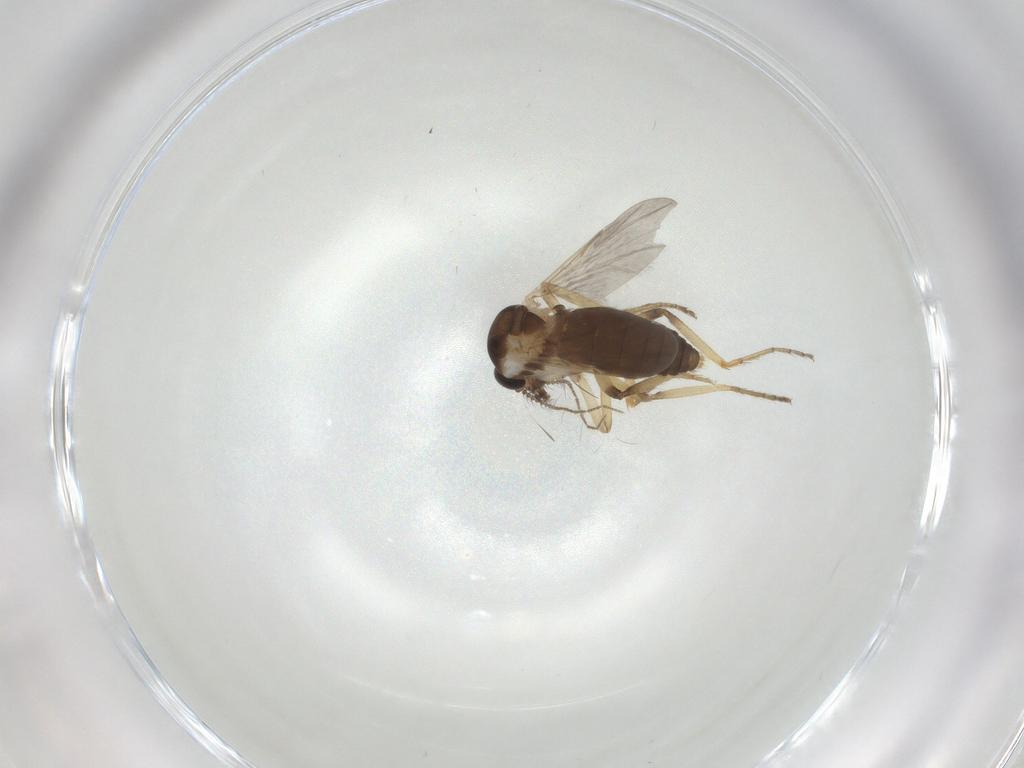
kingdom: Animalia
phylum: Arthropoda
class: Insecta
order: Diptera
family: Ceratopogonidae
